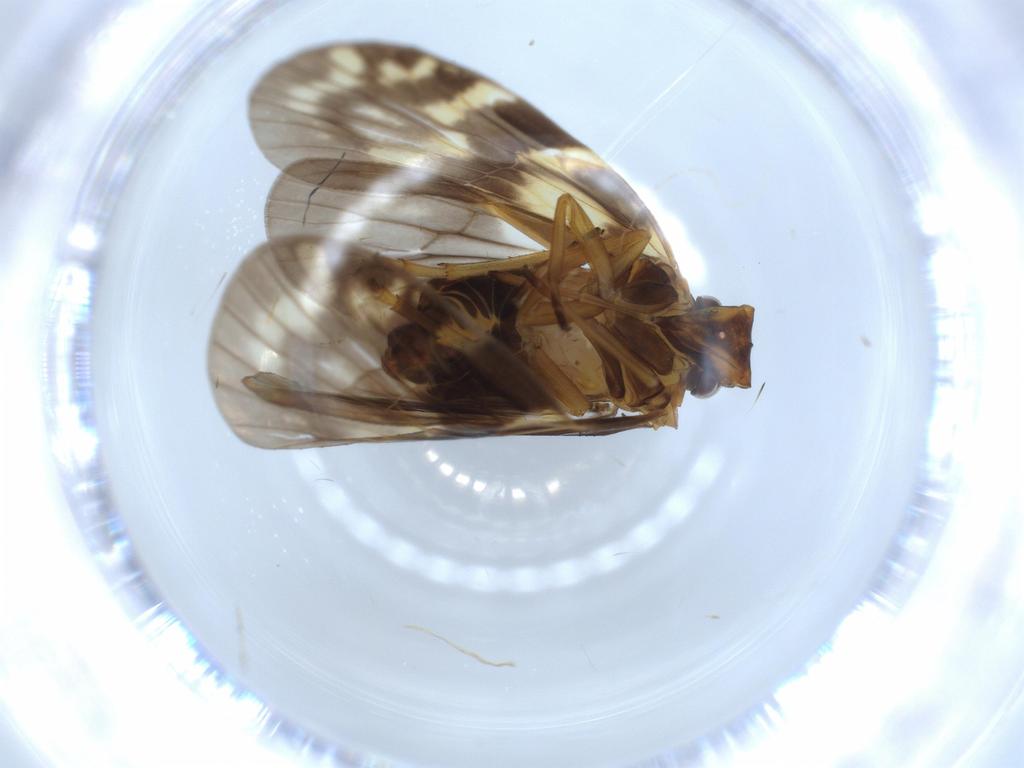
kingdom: Animalia
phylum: Arthropoda
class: Insecta
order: Hemiptera
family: Cixiidae
